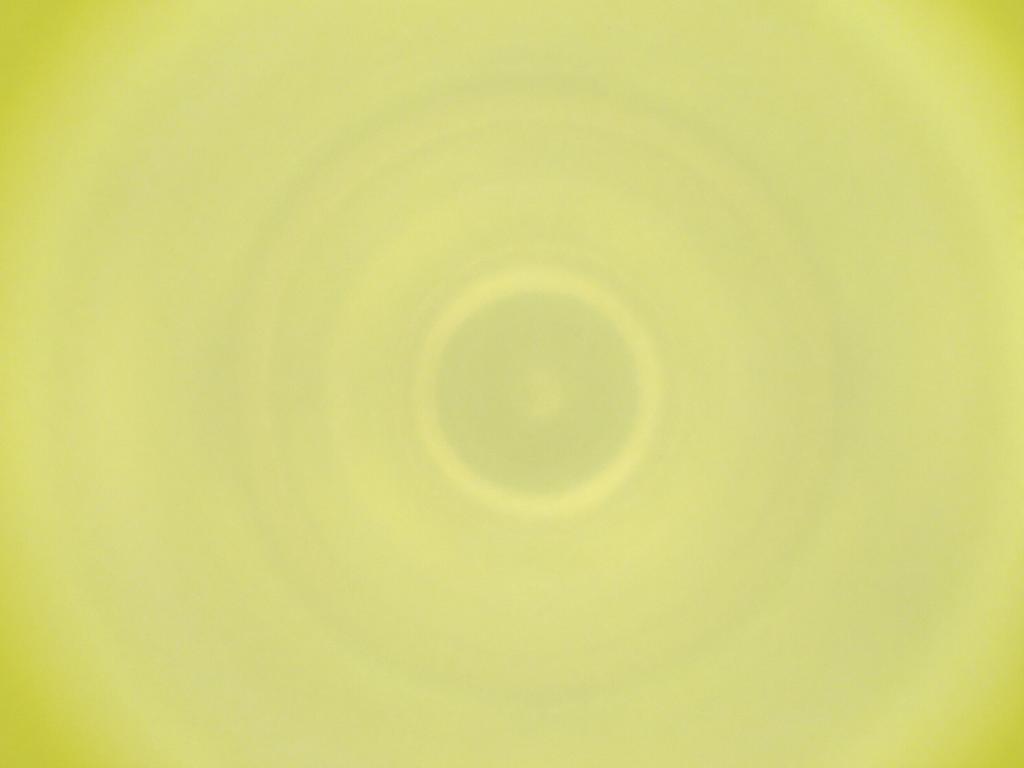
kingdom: Animalia
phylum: Arthropoda
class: Insecta
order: Diptera
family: Cecidomyiidae
